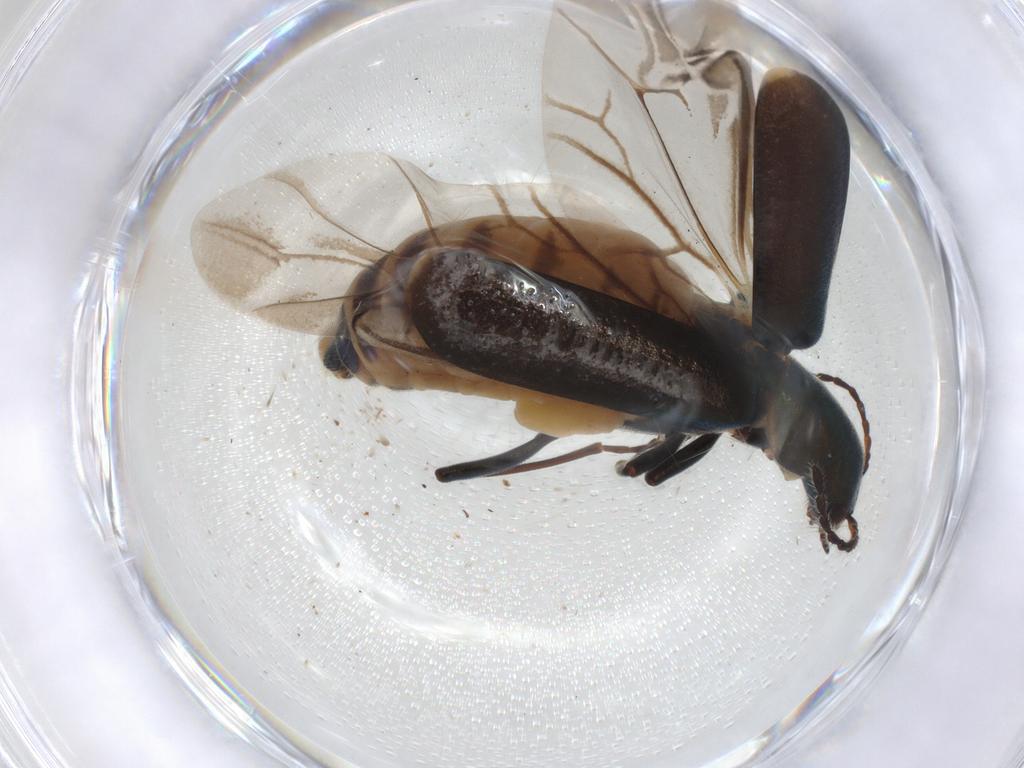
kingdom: Animalia
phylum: Arthropoda
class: Insecta
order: Coleoptera
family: Melyridae
